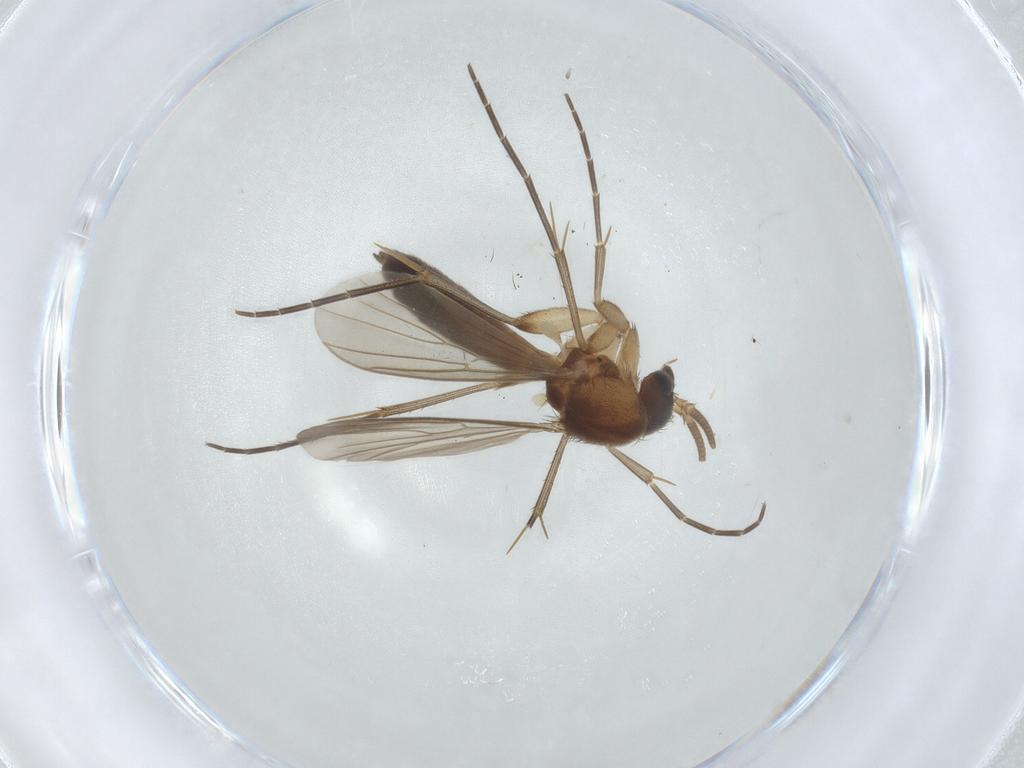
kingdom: Animalia
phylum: Arthropoda
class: Insecta
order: Diptera
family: Mycetophilidae
